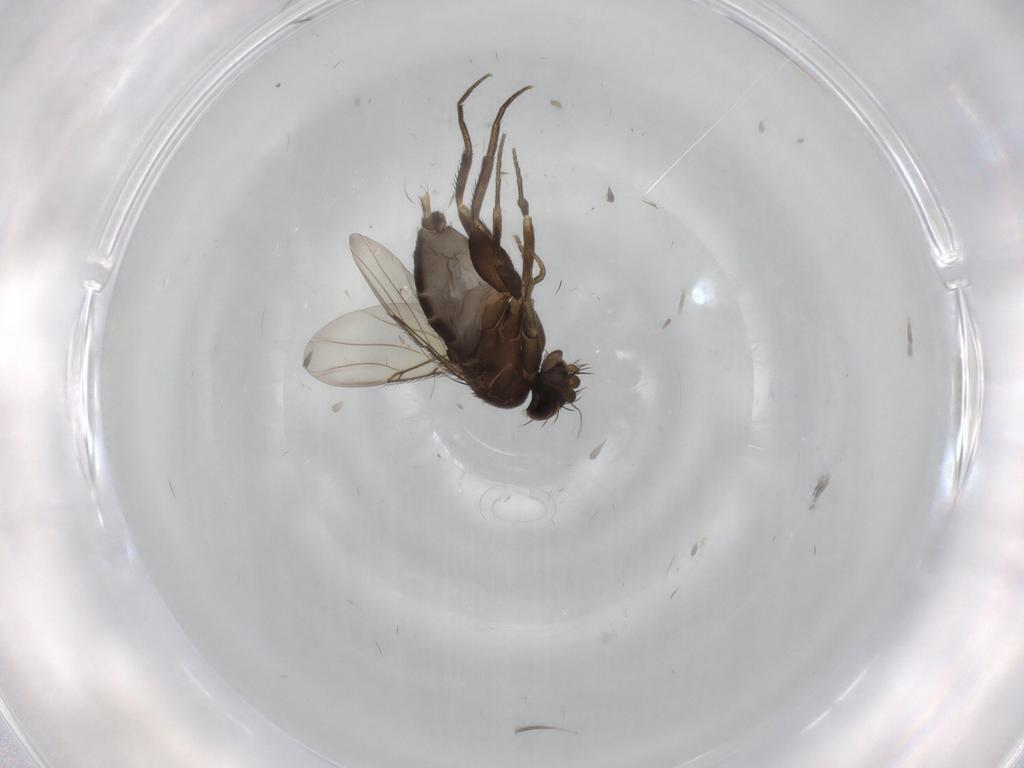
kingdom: Animalia
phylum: Arthropoda
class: Insecta
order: Diptera
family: Phoridae
